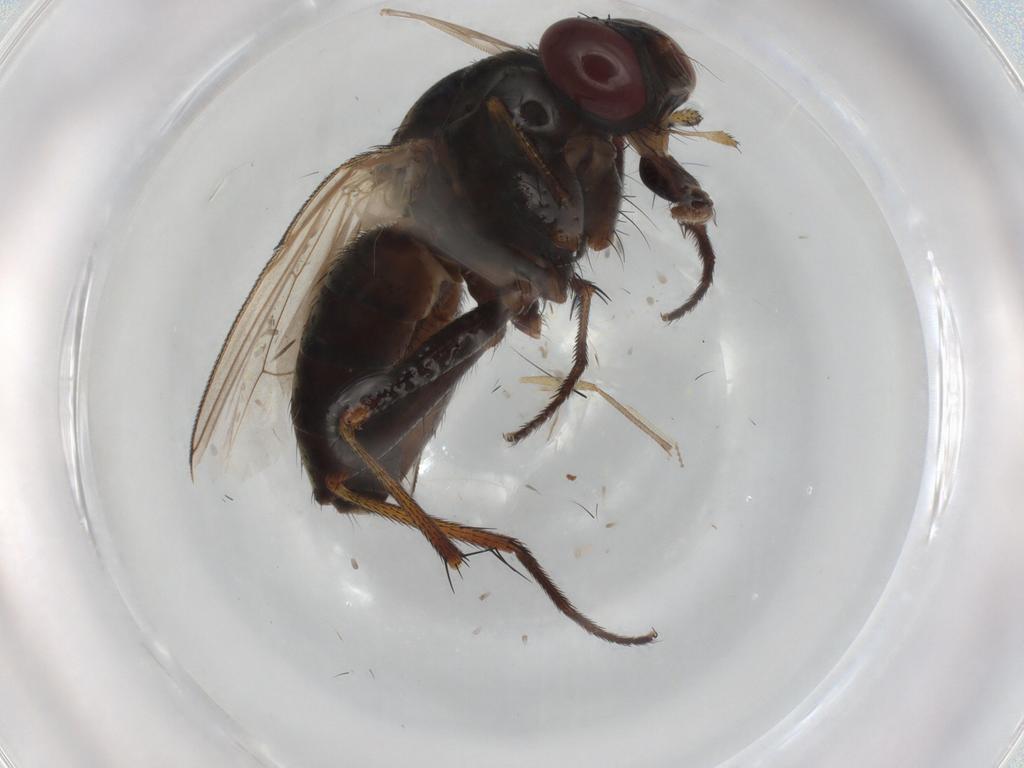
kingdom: Animalia
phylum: Arthropoda
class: Insecta
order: Diptera
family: Muscidae
